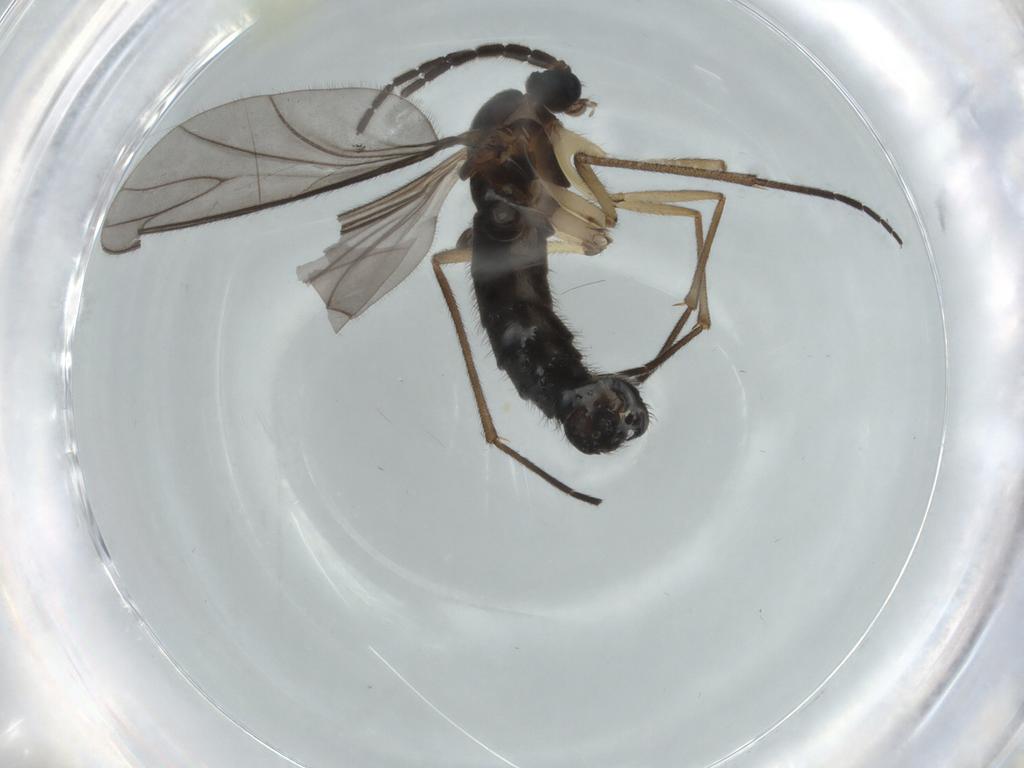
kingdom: Animalia
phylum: Arthropoda
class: Insecta
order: Diptera
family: Sciaridae
